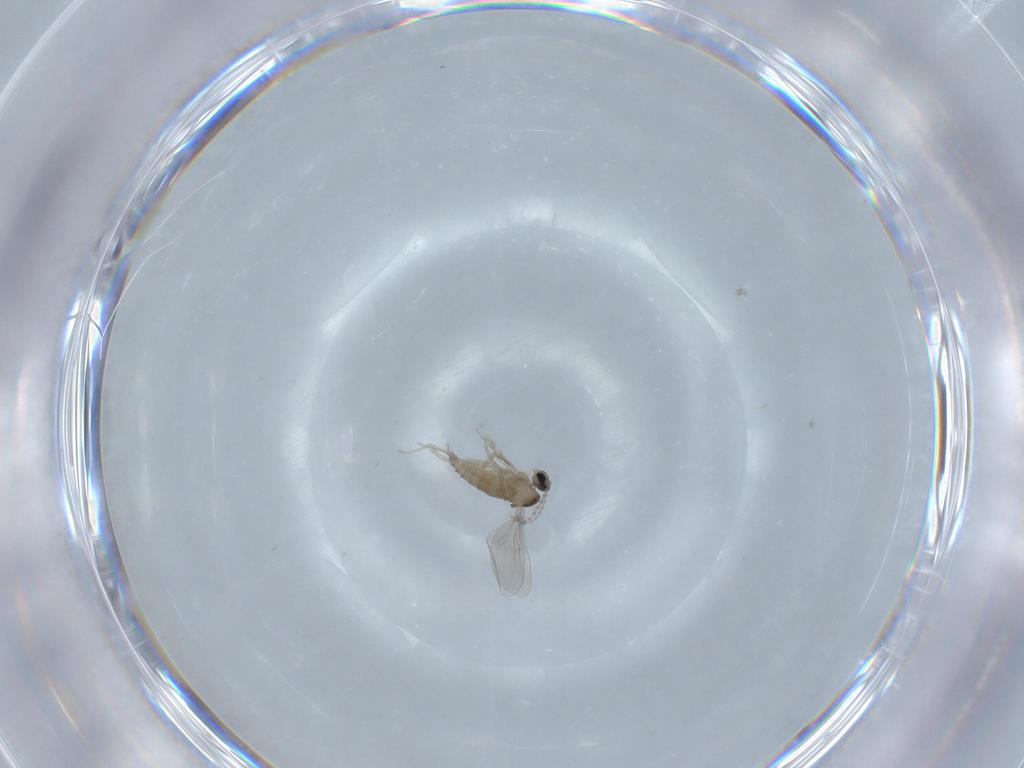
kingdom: Animalia
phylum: Arthropoda
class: Insecta
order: Diptera
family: Cecidomyiidae
